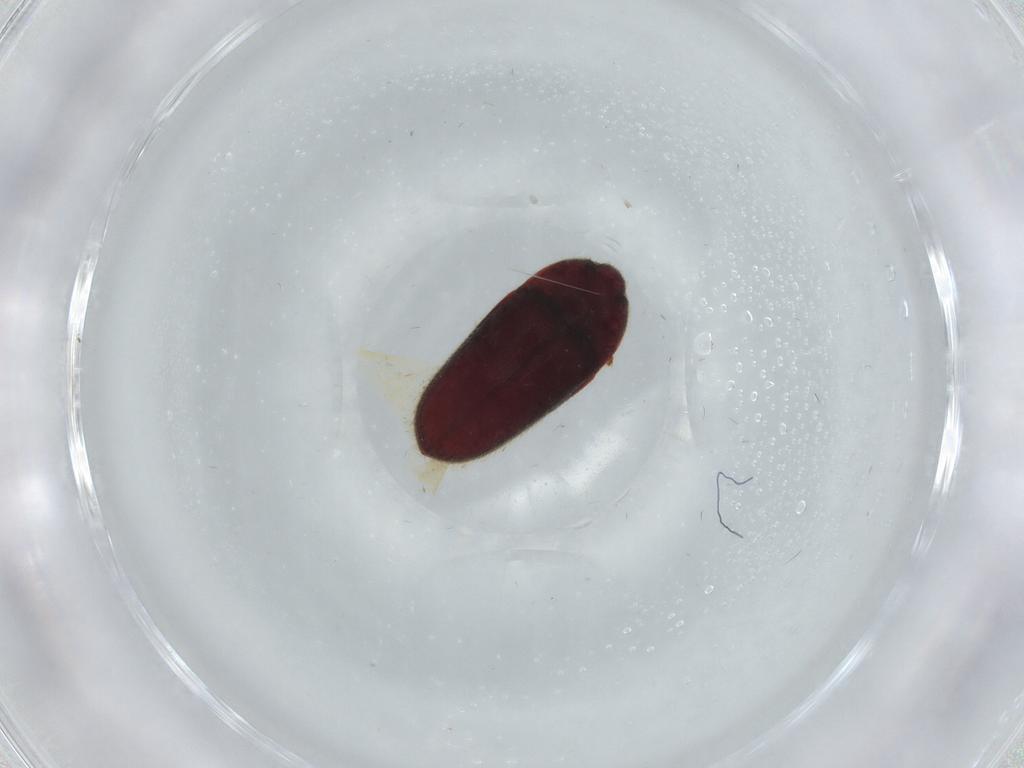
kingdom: Animalia
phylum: Arthropoda
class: Insecta
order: Coleoptera
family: Throscidae
